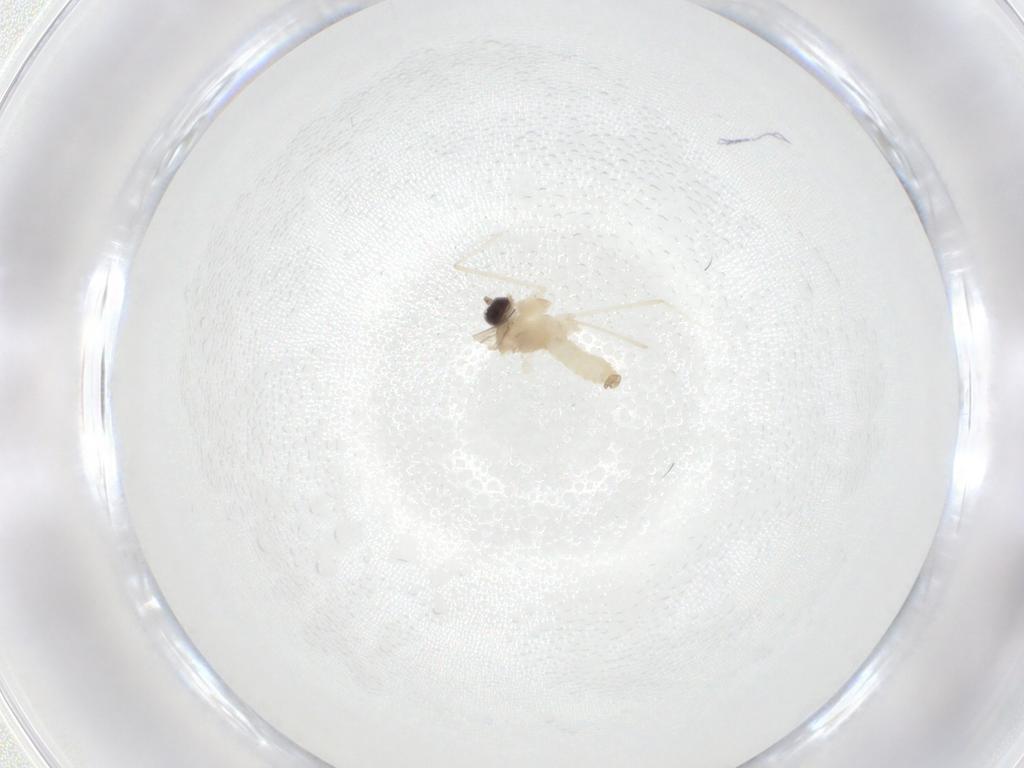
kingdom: Animalia
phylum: Arthropoda
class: Insecta
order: Diptera
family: Cecidomyiidae
